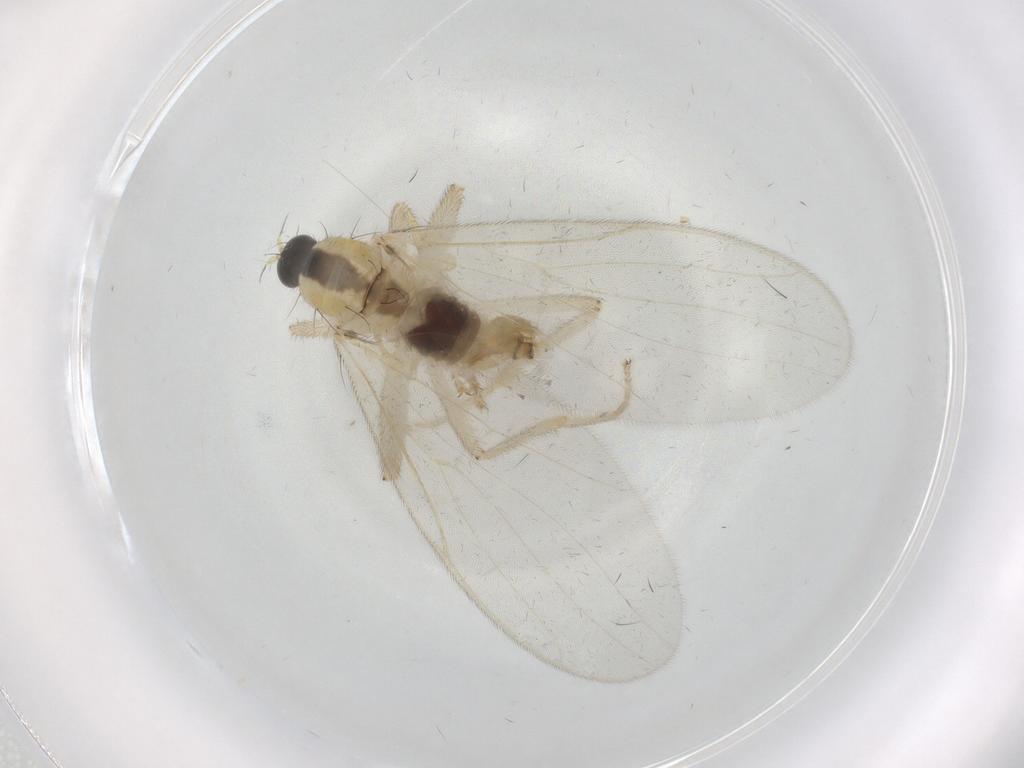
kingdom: Animalia
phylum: Arthropoda
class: Insecta
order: Diptera
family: Hybotidae
